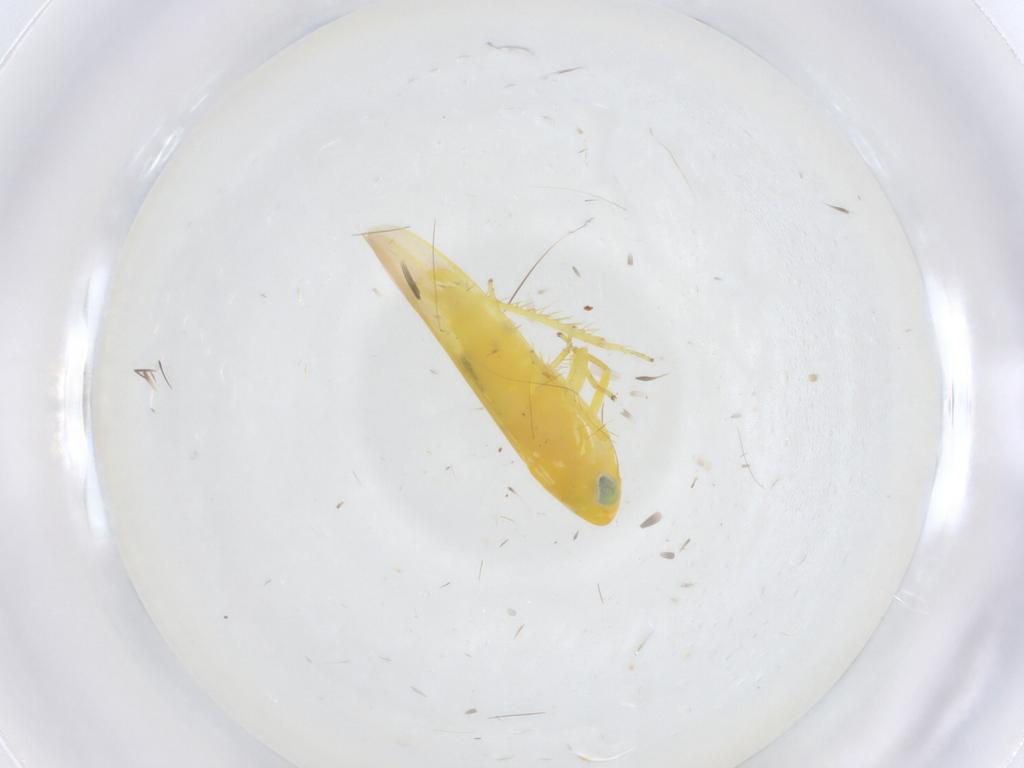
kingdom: Animalia
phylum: Arthropoda
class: Insecta
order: Hemiptera
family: Cicadellidae
